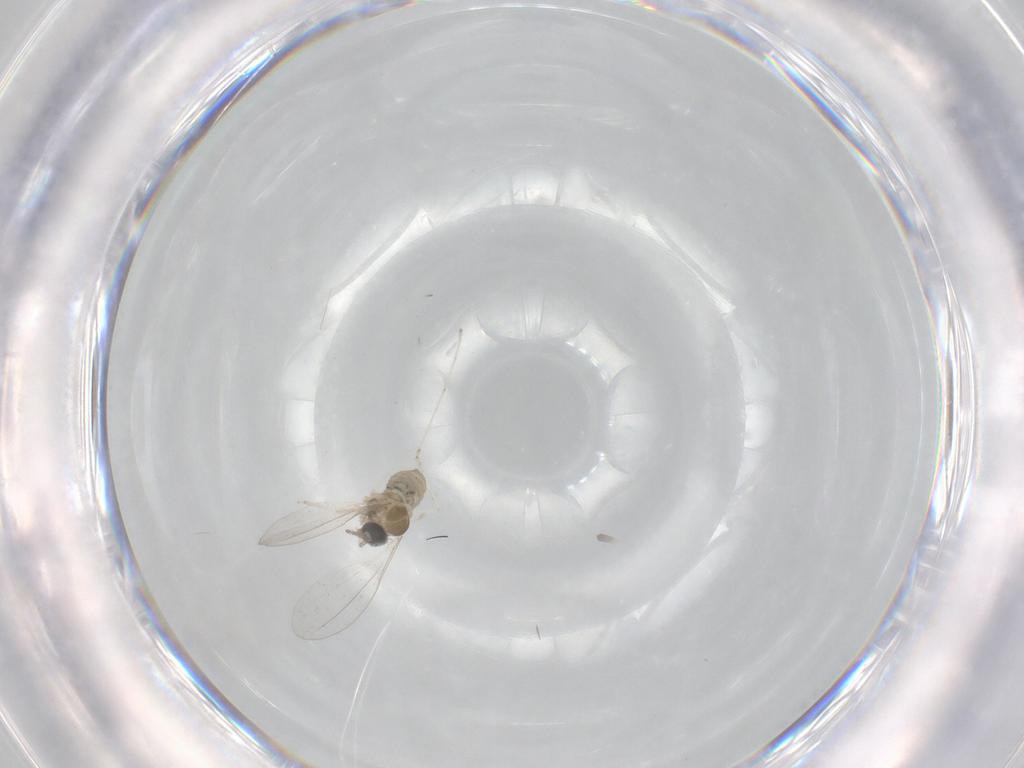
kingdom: Animalia
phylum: Arthropoda
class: Insecta
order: Diptera
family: Cecidomyiidae
